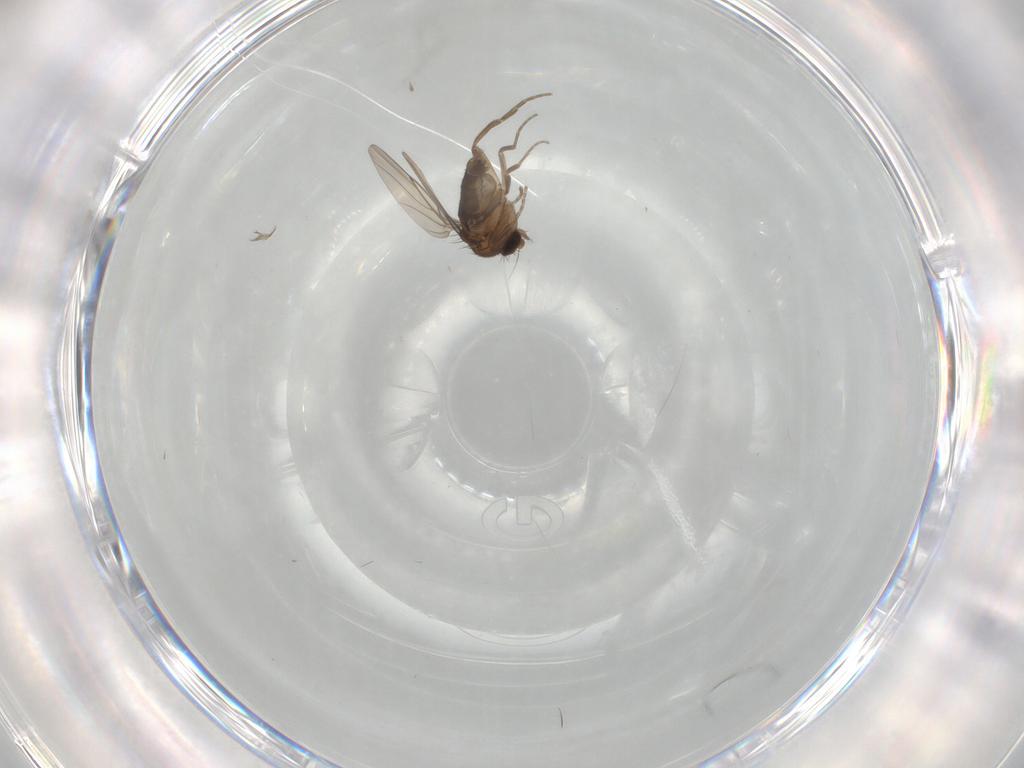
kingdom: Animalia
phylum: Arthropoda
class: Insecta
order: Diptera
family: Phoridae
